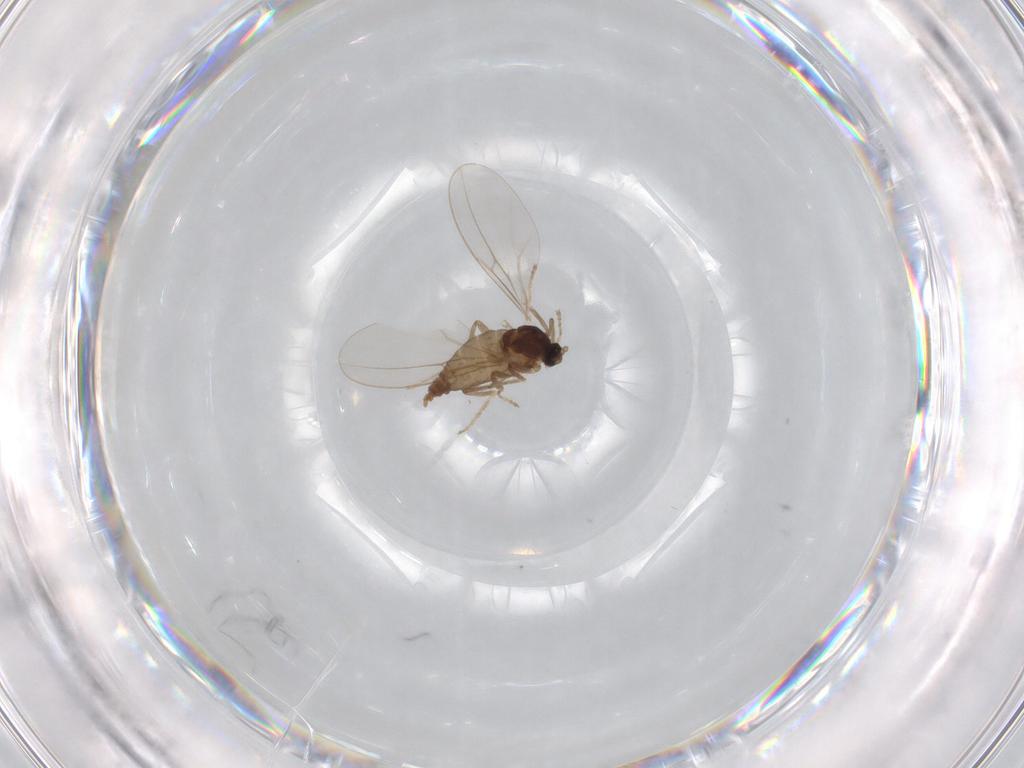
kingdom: Animalia
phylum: Arthropoda
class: Insecta
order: Diptera
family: Cecidomyiidae
